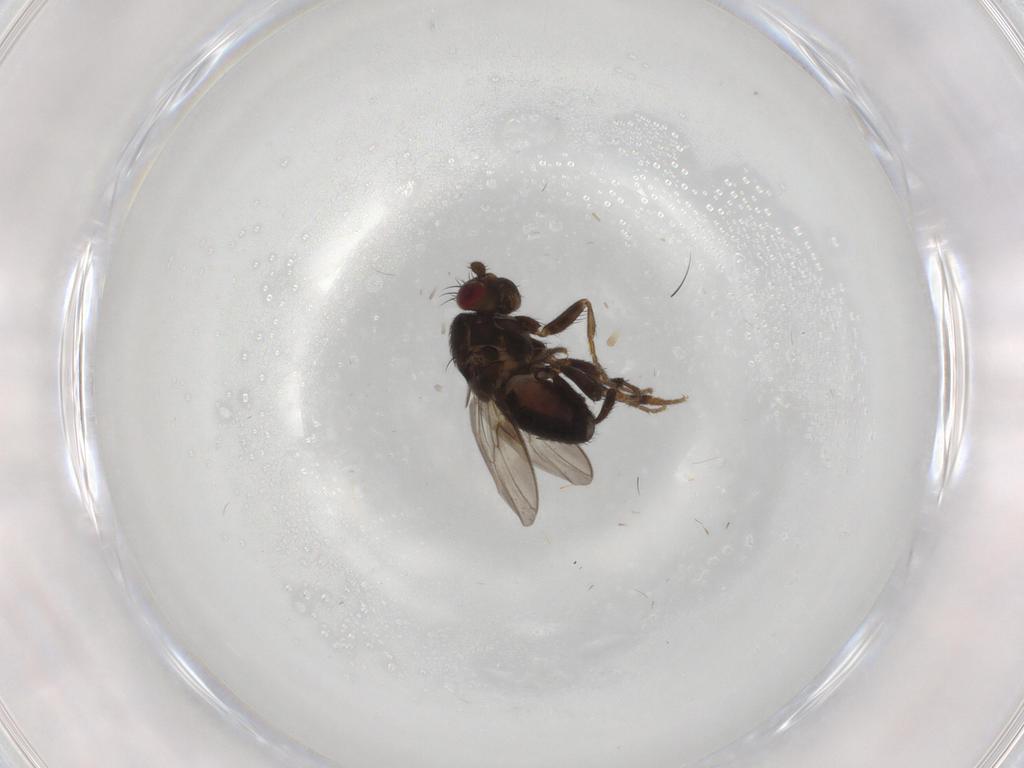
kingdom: Animalia
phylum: Arthropoda
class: Insecta
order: Diptera
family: Sphaeroceridae
